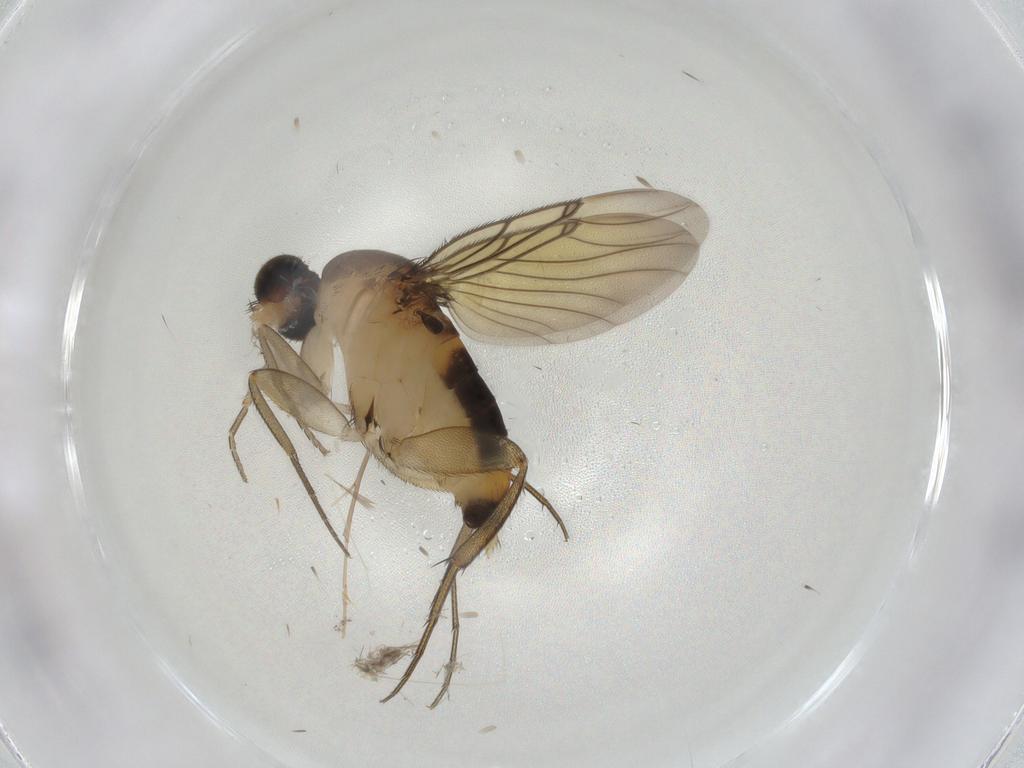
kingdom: Animalia
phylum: Arthropoda
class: Insecta
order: Diptera
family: Chironomidae
